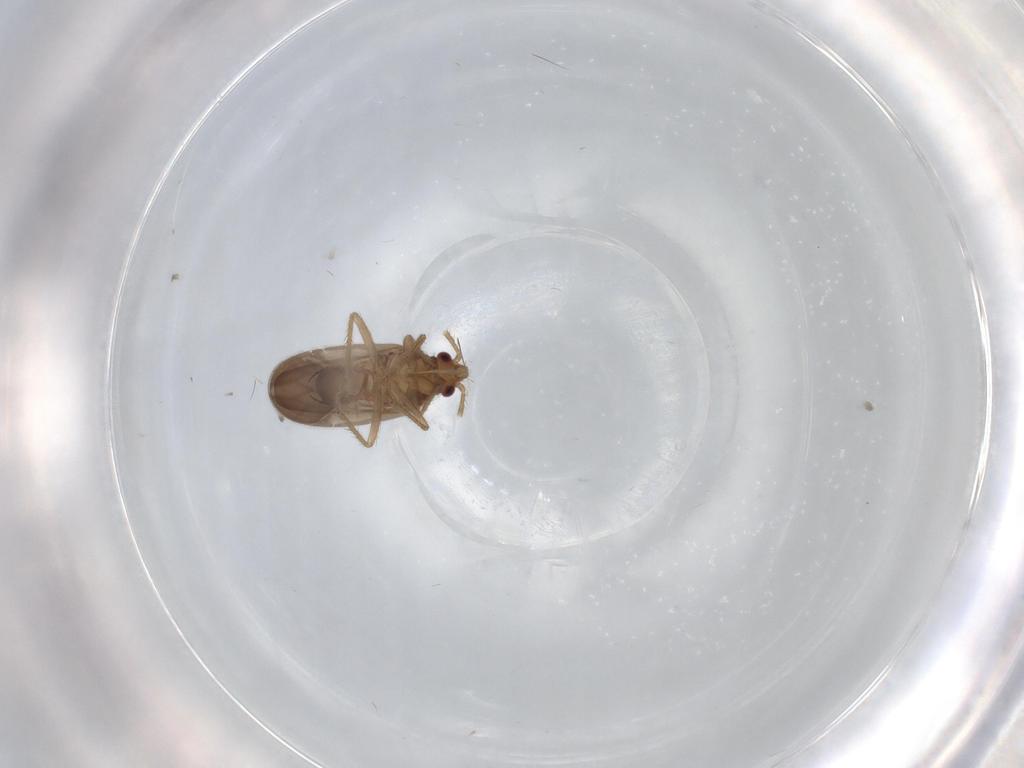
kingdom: Animalia
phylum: Arthropoda
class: Insecta
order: Hemiptera
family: Ceratocombidae
